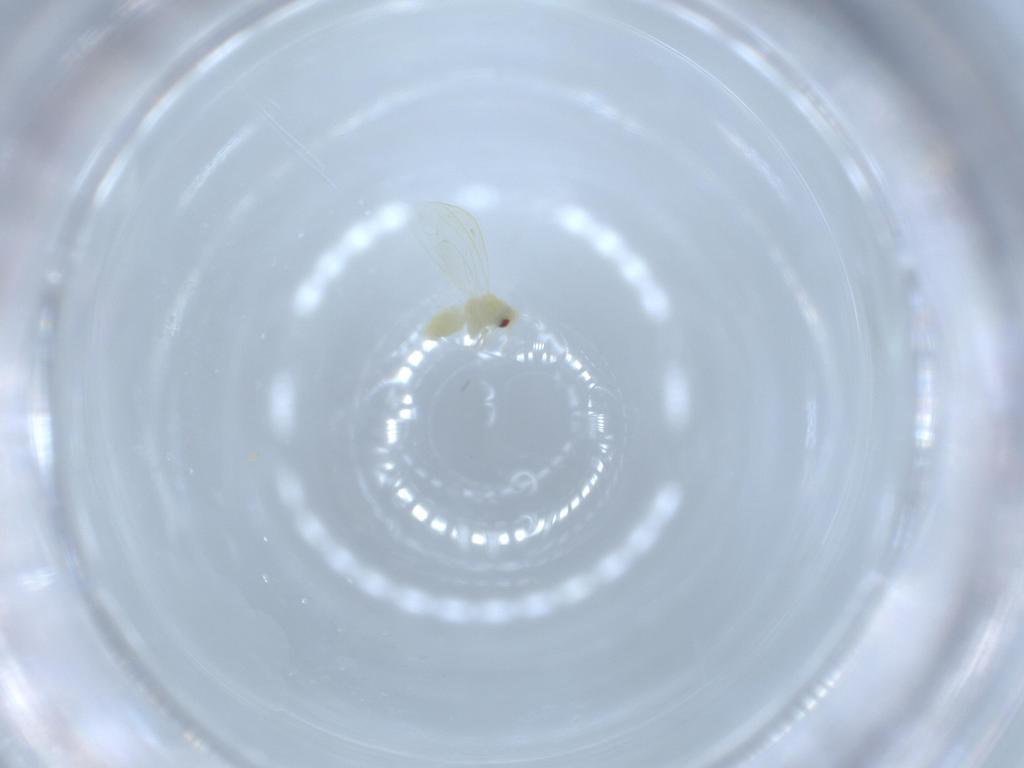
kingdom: Animalia
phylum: Arthropoda
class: Insecta
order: Hemiptera
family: Aleyrodidae
